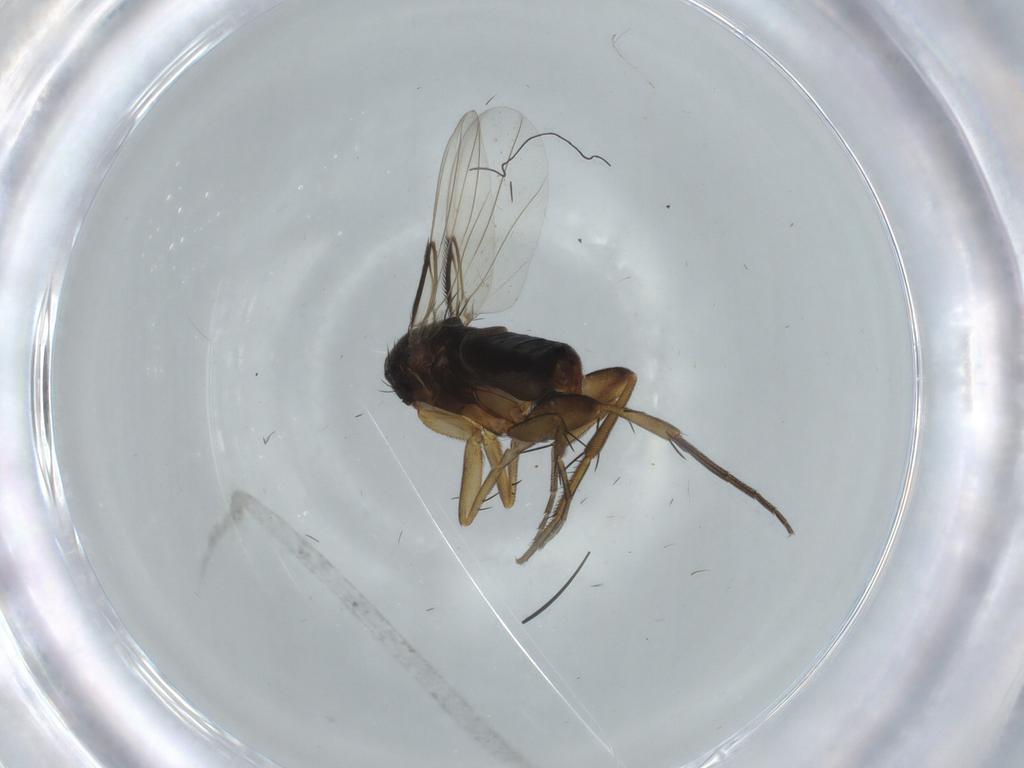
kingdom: Animalia
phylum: Arthropoda
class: Insecta
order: Diptera
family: Phoridae
